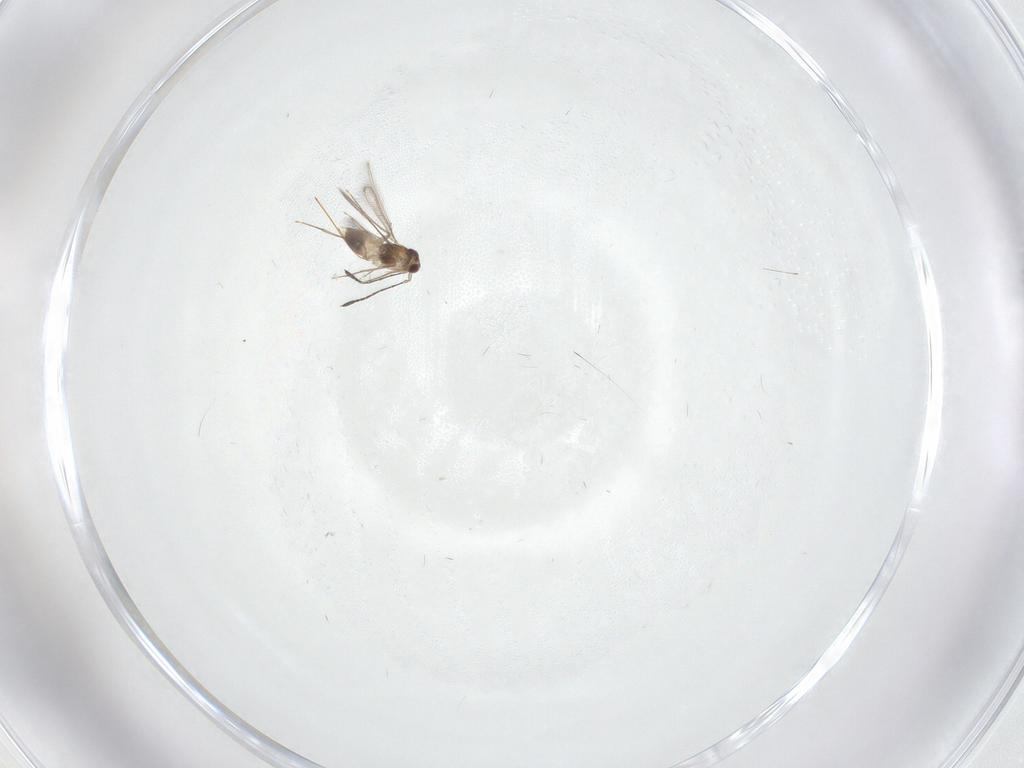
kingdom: Animalia
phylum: Arthropoda
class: Insecta
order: Hymenoptera
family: Mymaridae
